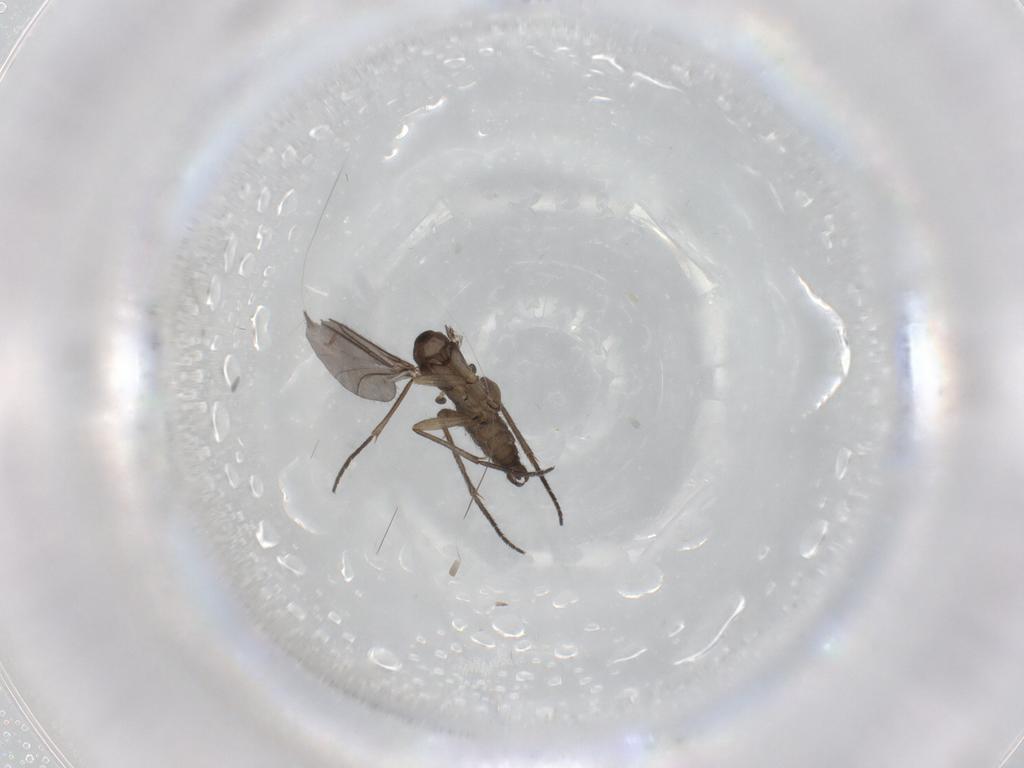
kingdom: Animalia
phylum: Arthropoda
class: Insecta
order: Diptera
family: Sciaridae
